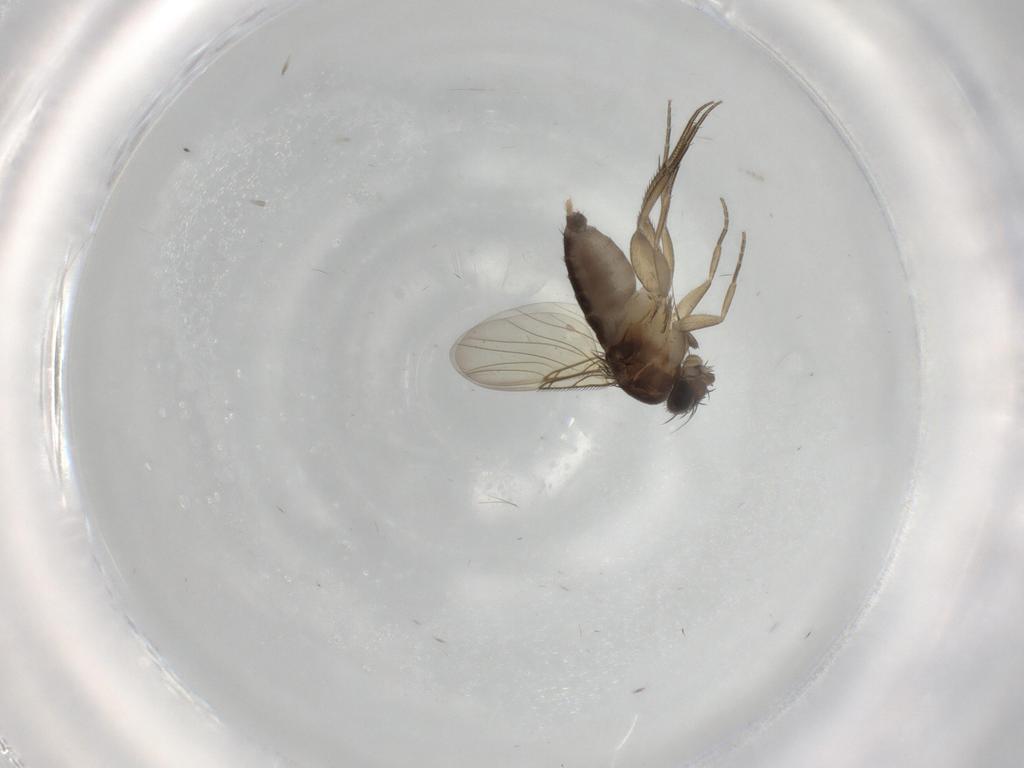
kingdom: Animalia
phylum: Arthropoda
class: Insecta
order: Diptera
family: Phoridae
